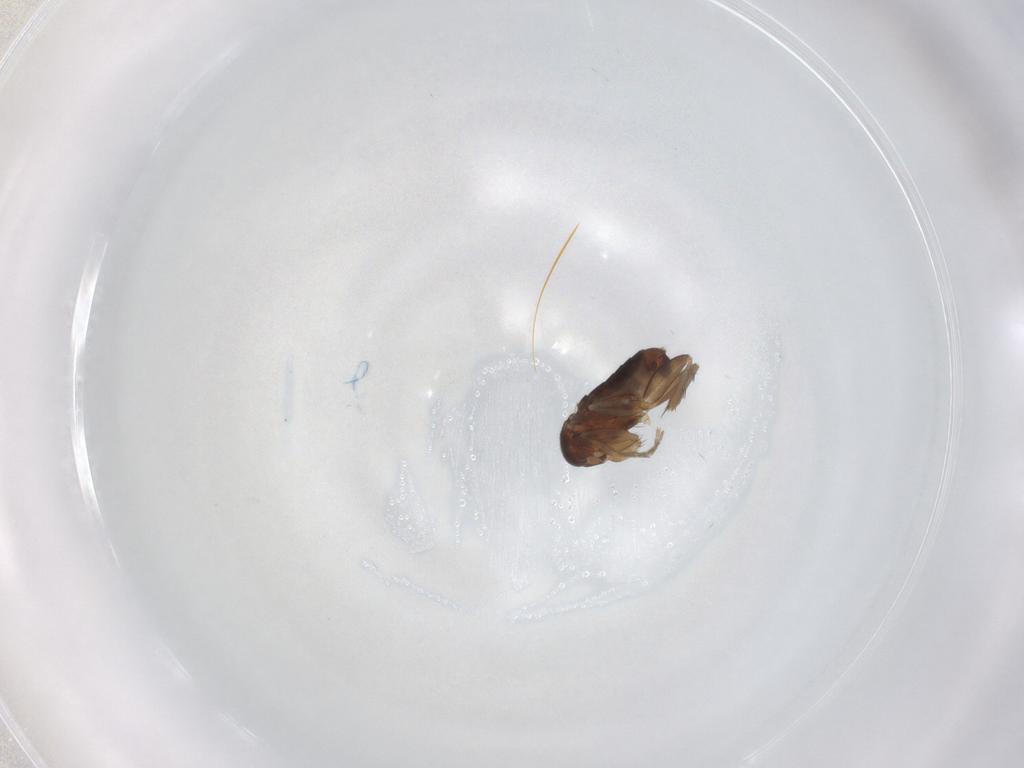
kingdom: Animalia
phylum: Arthropoda
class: Insecta
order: Diptera
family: Phoridae
